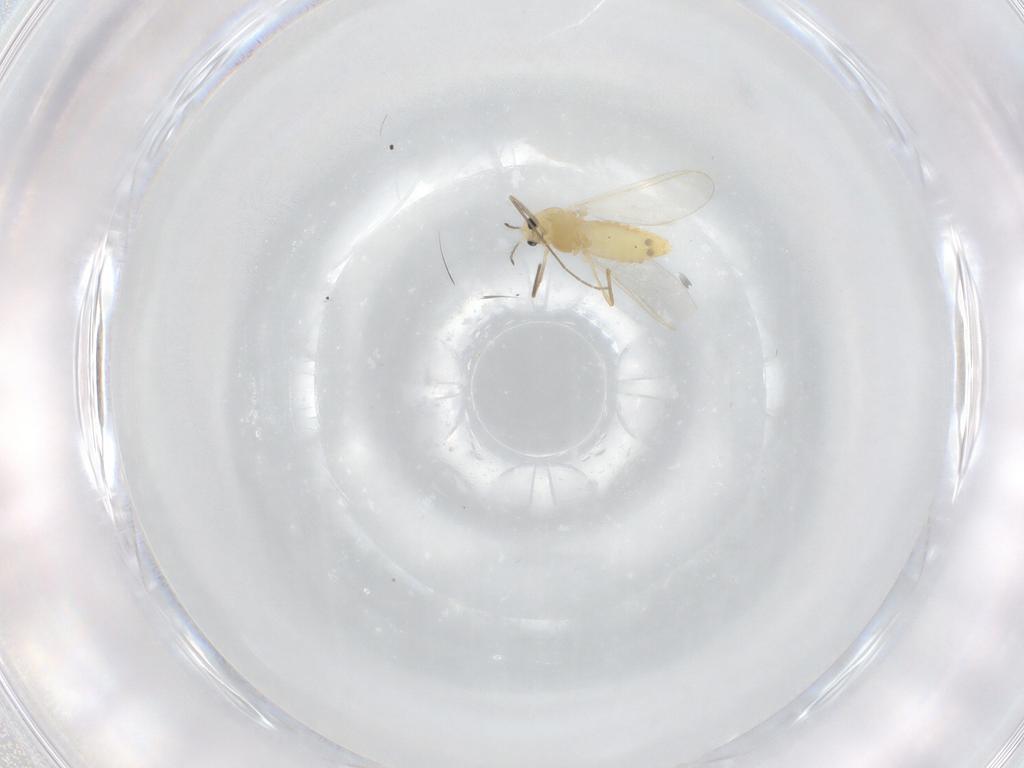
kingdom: Animalia
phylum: Arthropoda
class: Insecta
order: Diptera
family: Chironomidae
